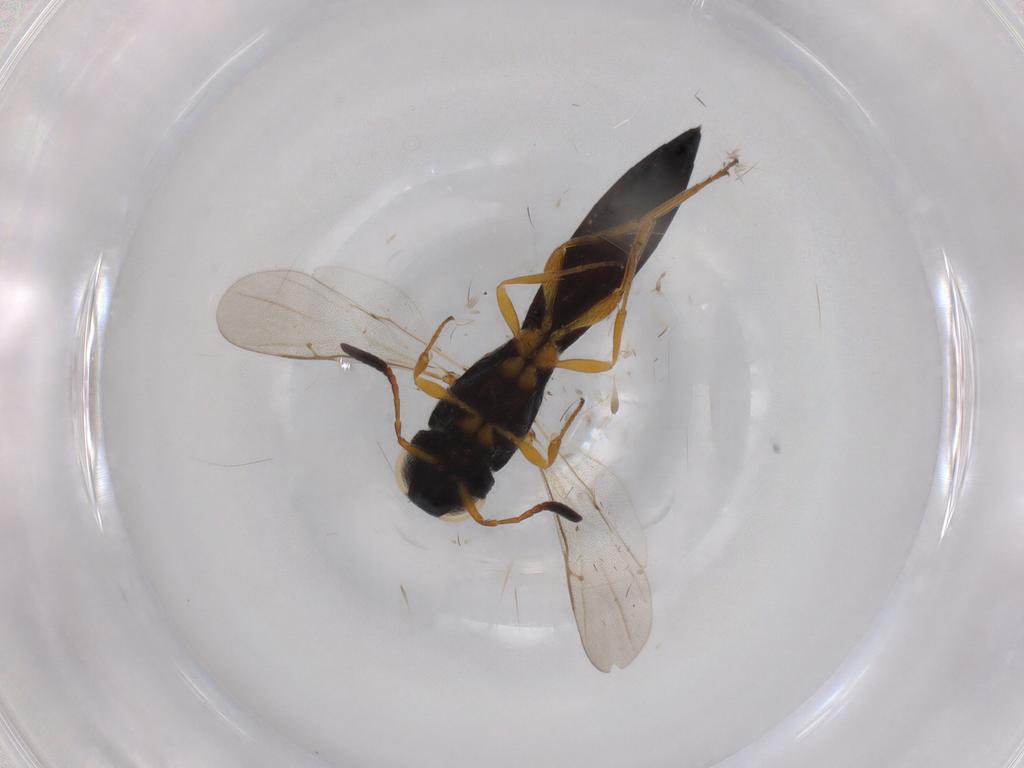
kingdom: Animalia
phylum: Arthropoda
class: Insecta
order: Hymenoptera
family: Scelionidae
